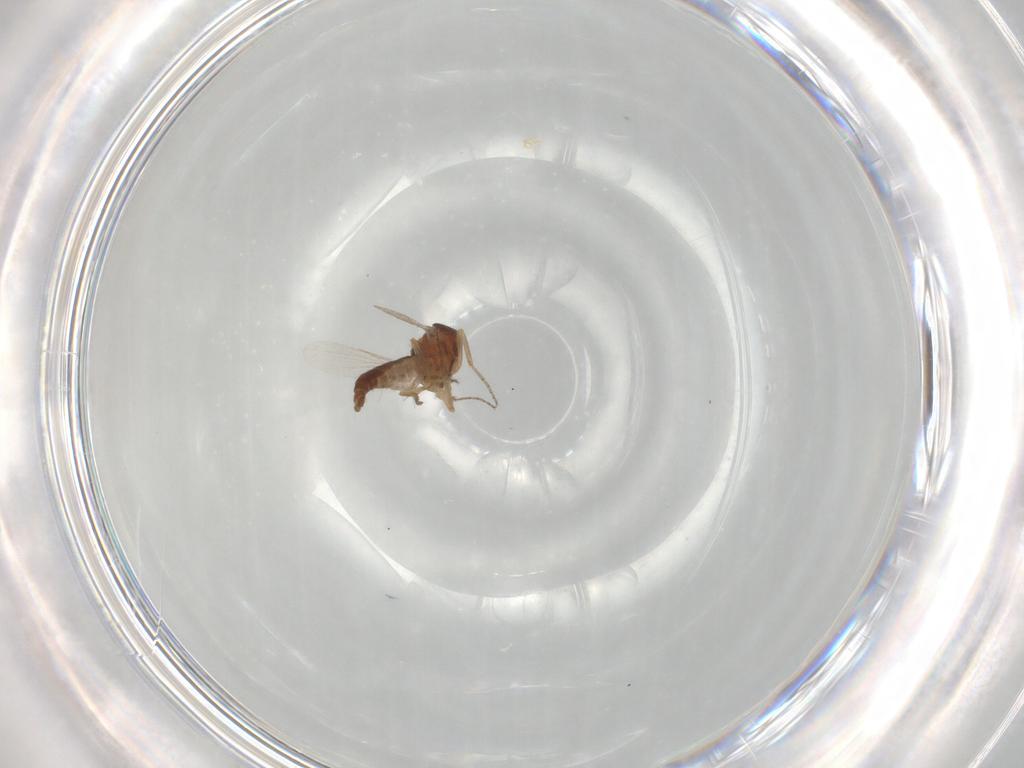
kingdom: Animalia
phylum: Arthropoda
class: Insecta
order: Diptera
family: Ceratopogonidae
